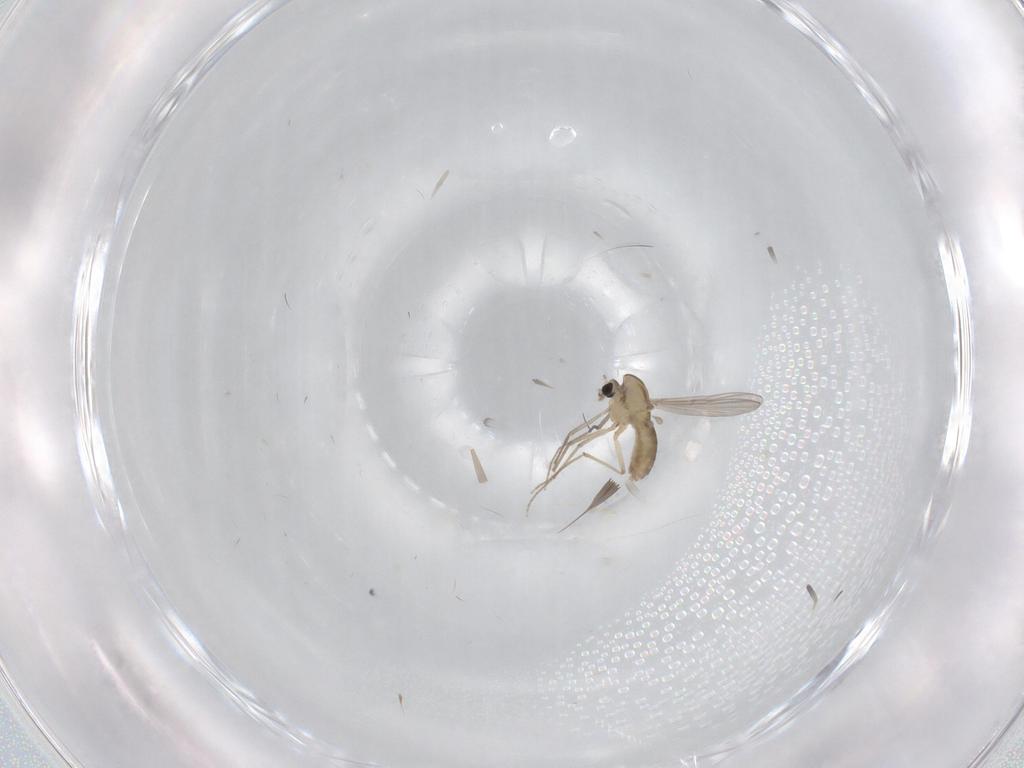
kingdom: Animalia
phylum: Arthropoda
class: Insecta
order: Diptera
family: Chironomidae
